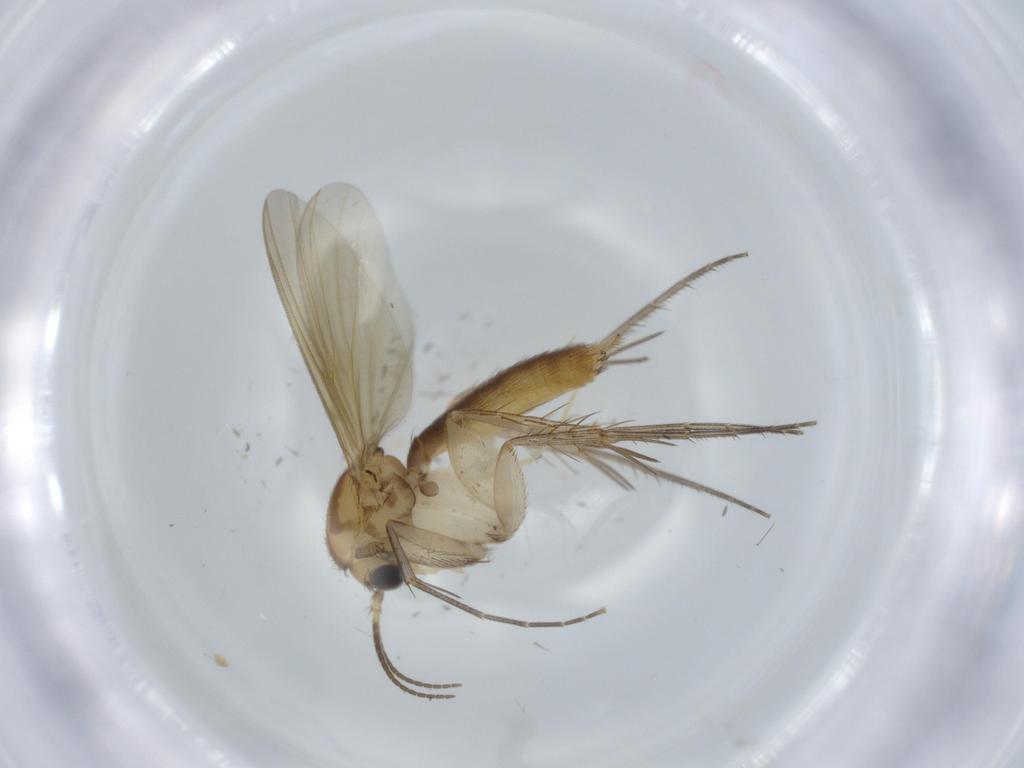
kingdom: Animalia
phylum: Arthropoda
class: Insecta
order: Diptera
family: Mycetophilidae
